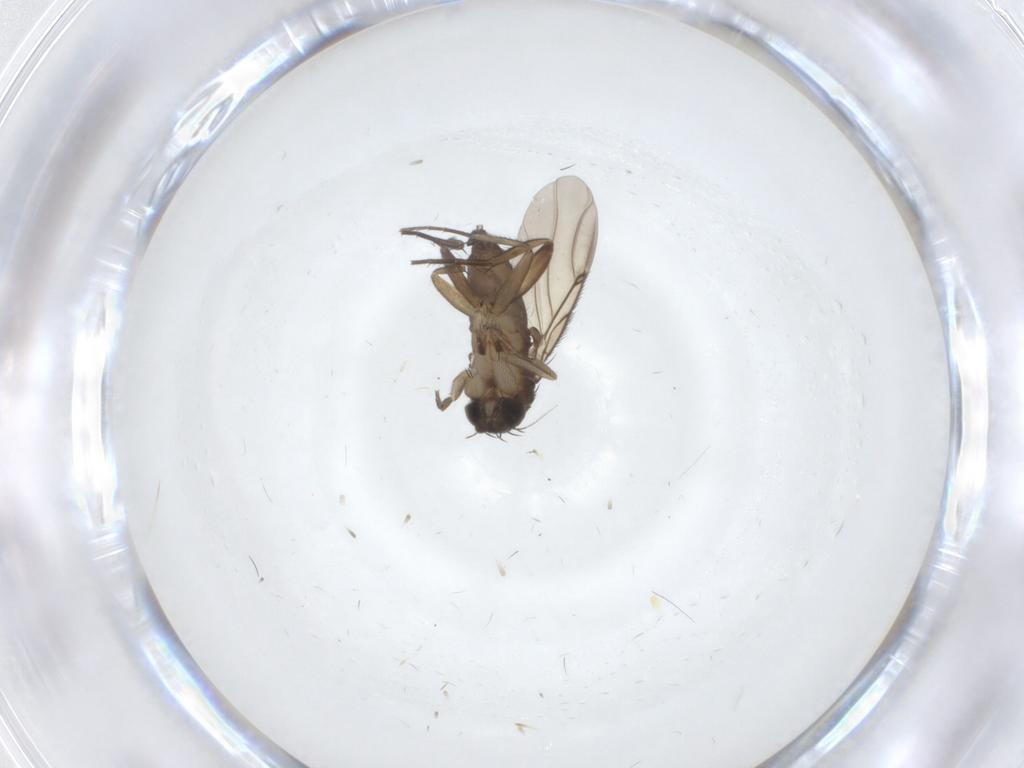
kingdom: Animalia
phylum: Arthropoda
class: Insecta
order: Diptera
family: Phoridae
